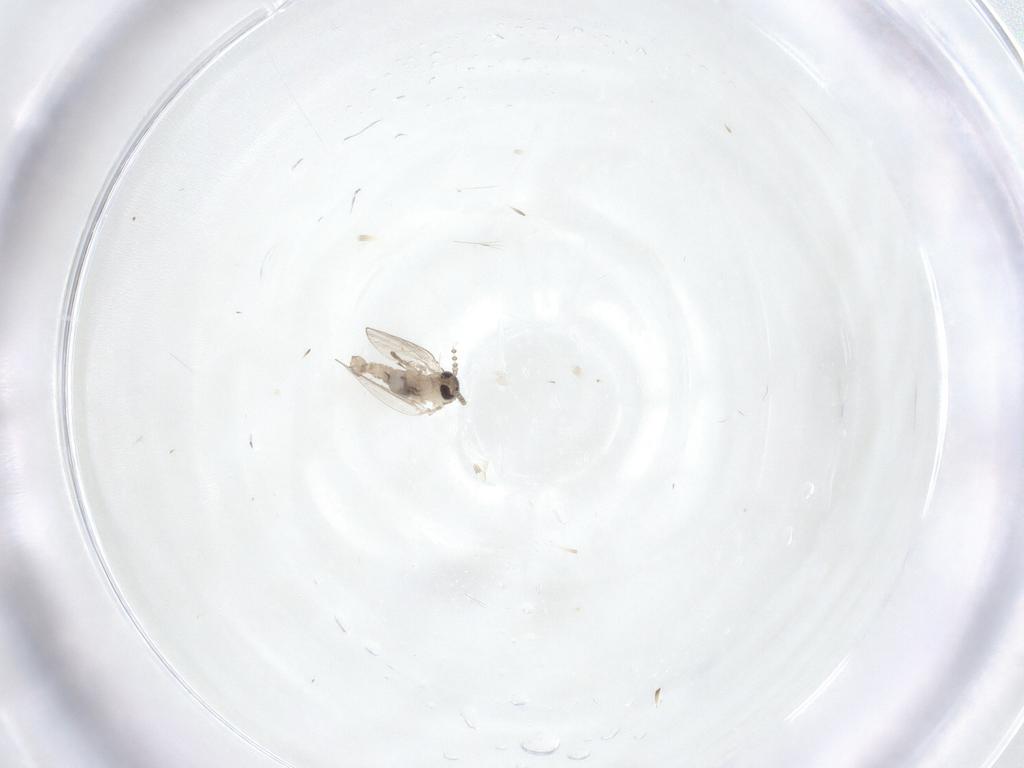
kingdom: Animalia
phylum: Arthropoda
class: Insecta
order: Diptera
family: Psychodidae
